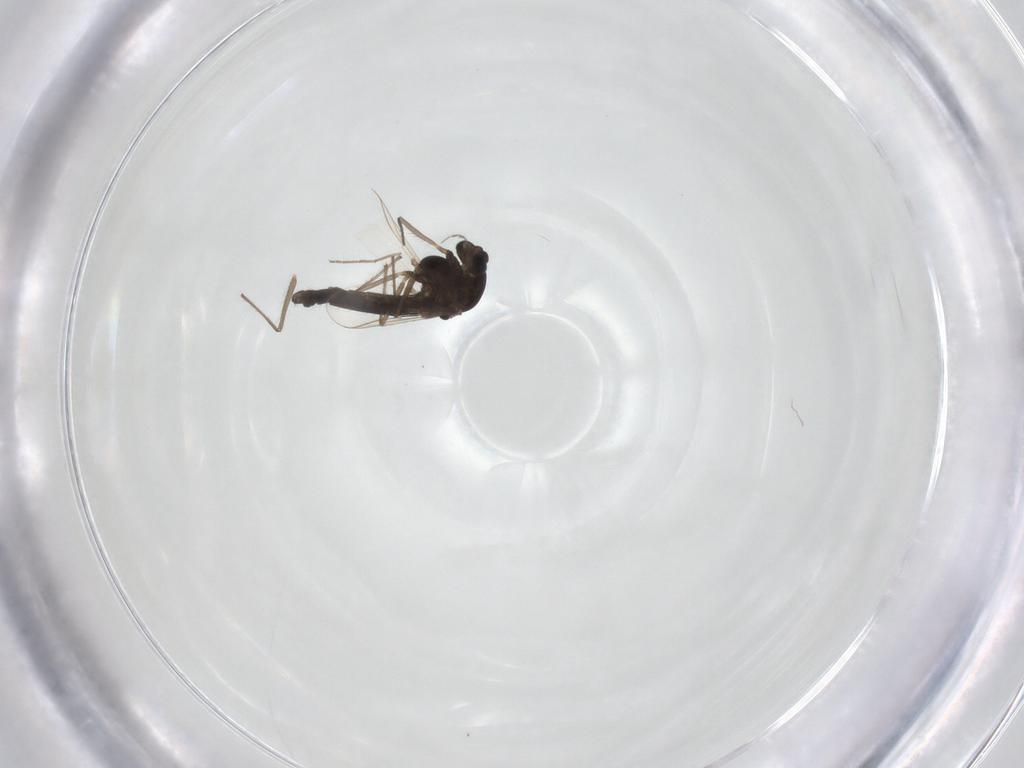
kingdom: Animalia
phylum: Arthropoda
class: Insecta
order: Diptera
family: Chironomidae
